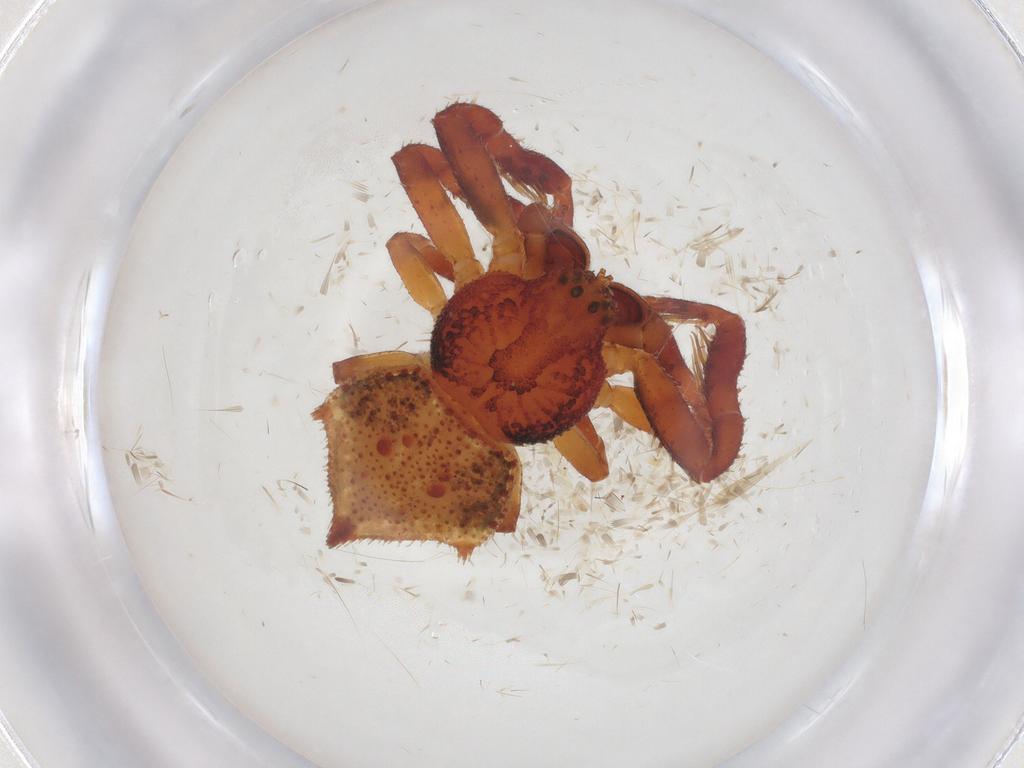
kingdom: Animalia
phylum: Arthropoda
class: Arachnida
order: Araneae
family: Thomisidae
